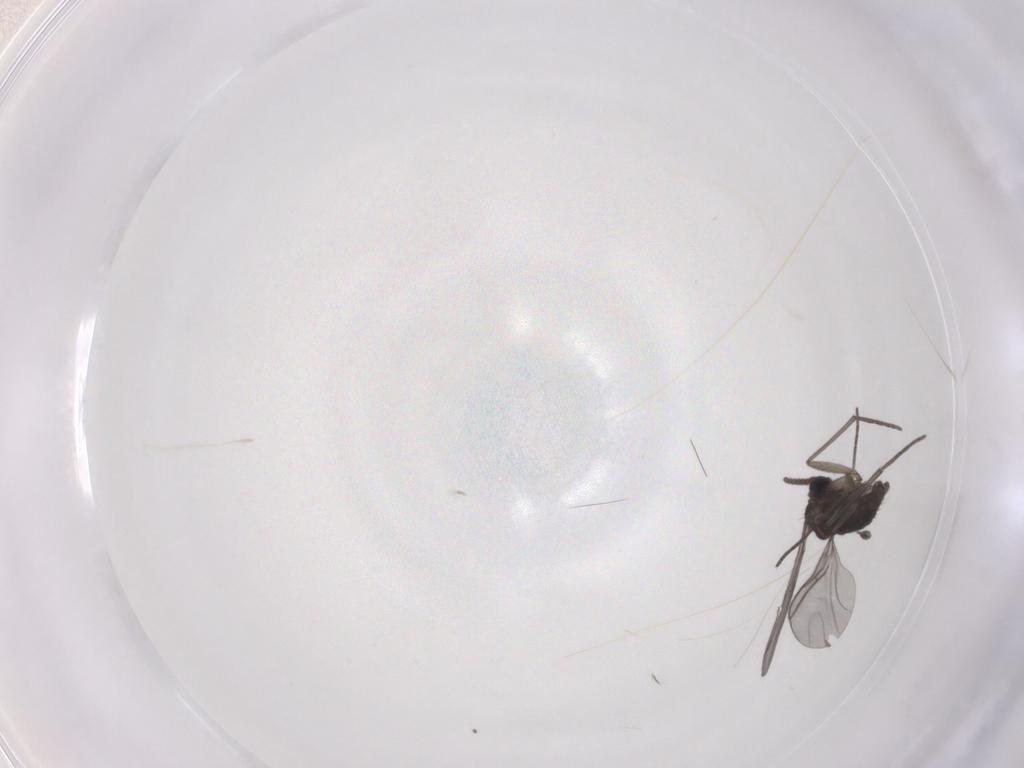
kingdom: Animalia
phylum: Arthropoda
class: Insecta
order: Diptera
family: Sciaridae
